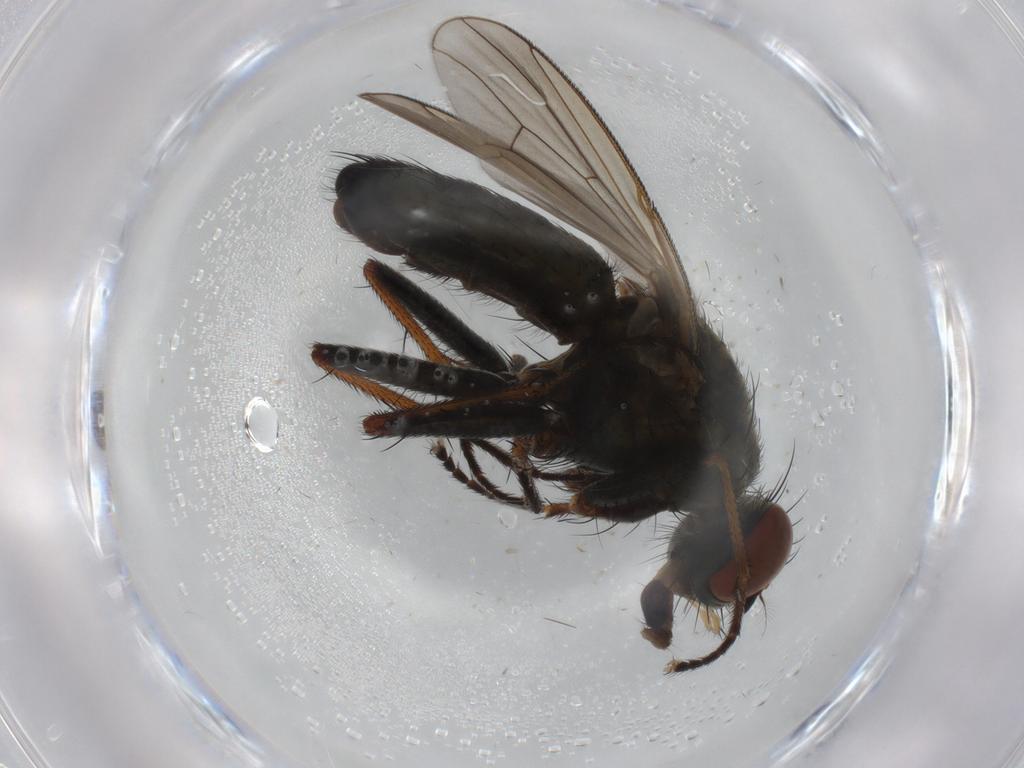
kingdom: Animalia
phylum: Arthropoda
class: Insecta
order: Diptera
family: Muscidae
